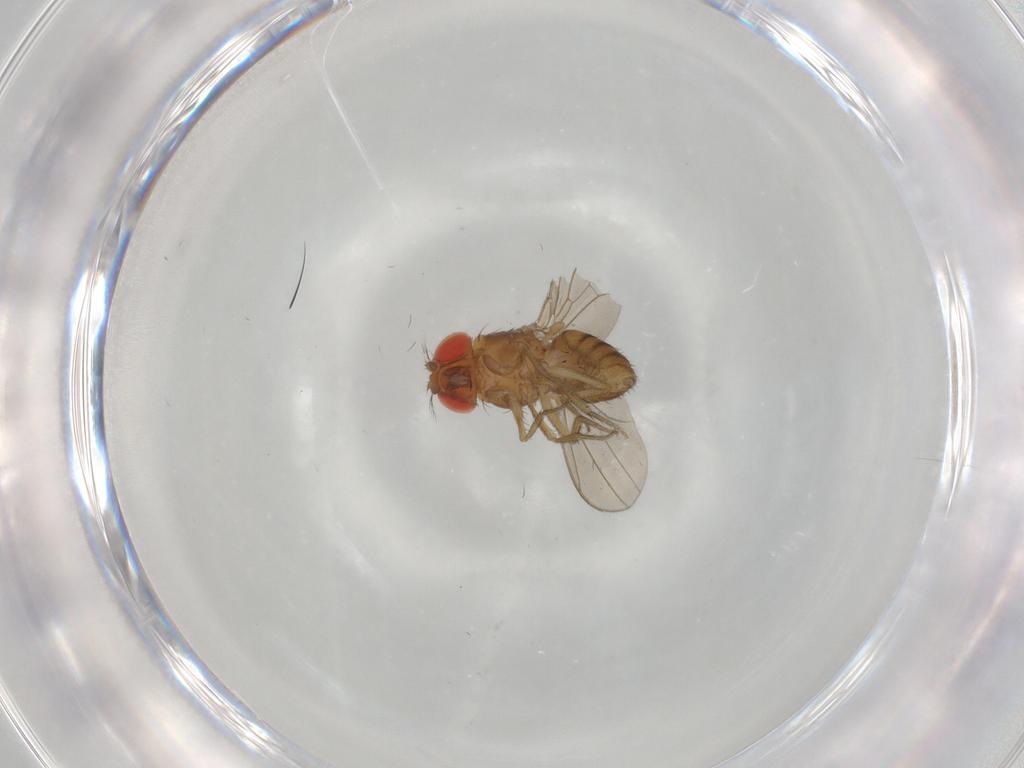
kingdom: Animalia
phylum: Arthropoda
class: Insecta
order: Diptera
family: Drosophilidae
